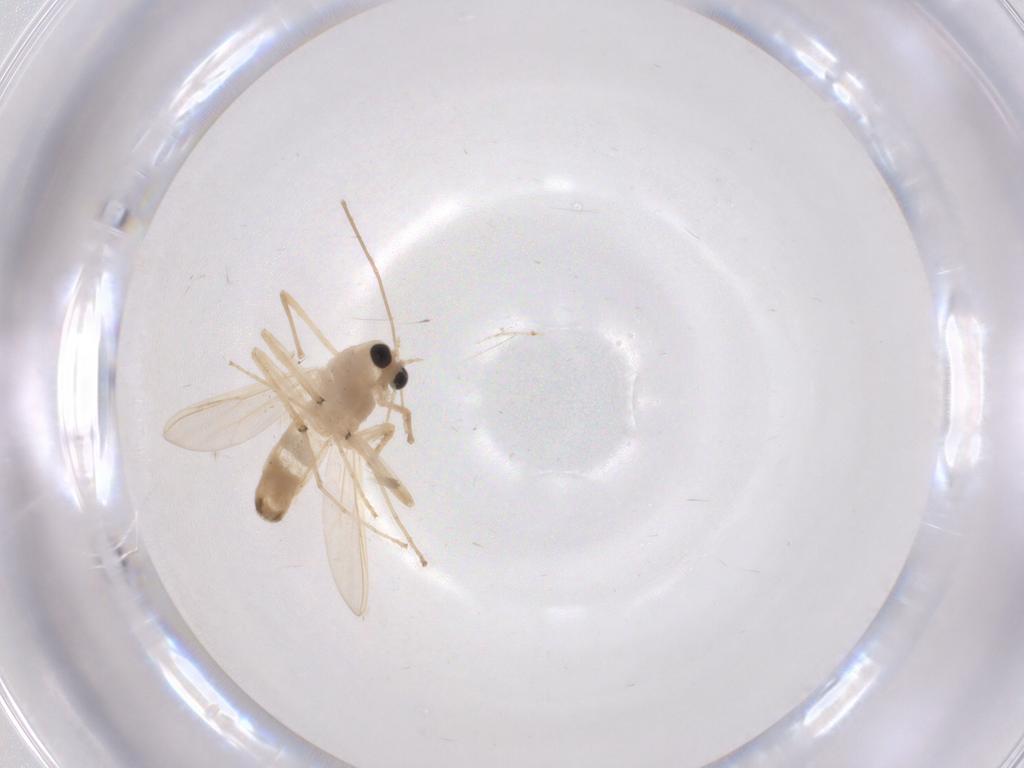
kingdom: Animalia
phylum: Arthropoda
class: Insecta
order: Diptera
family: Chironomidae
